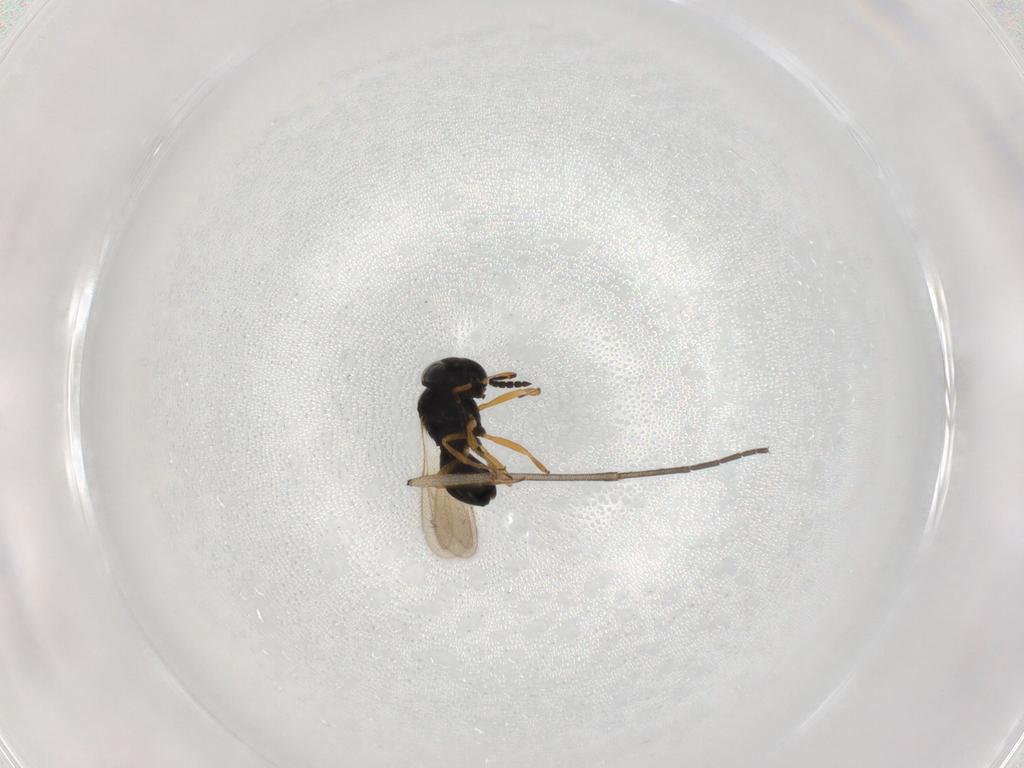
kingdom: Animalia
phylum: Arthropoda
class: Insecta
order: Hymenoptera
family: Scelionidae
